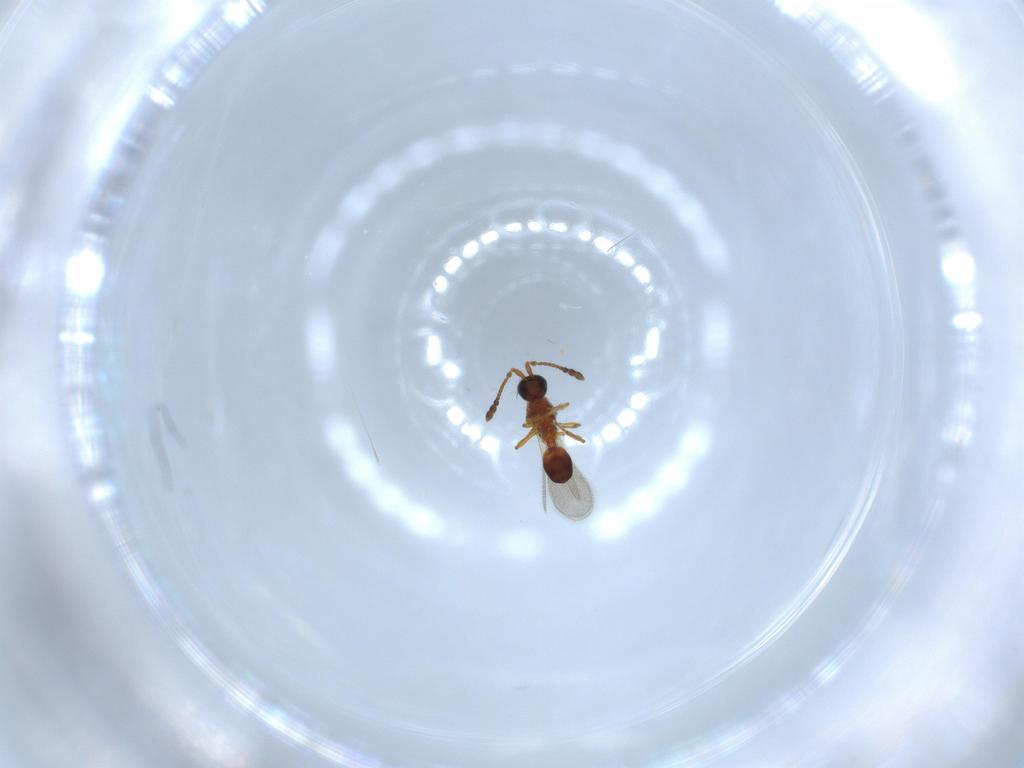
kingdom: Animalia
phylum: Arthropoda
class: Insecta
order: Hymenoptera
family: Diapriidae
